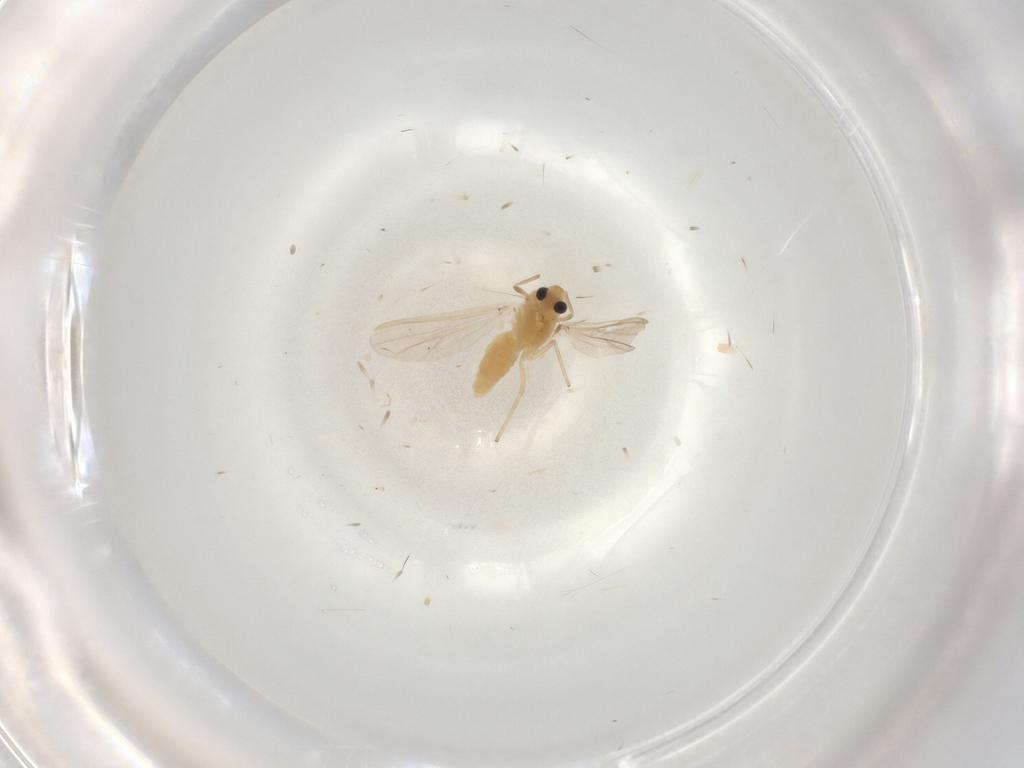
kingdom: Animalia
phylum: Arthropoda
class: Insecta
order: Diptera
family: Chironomidae
